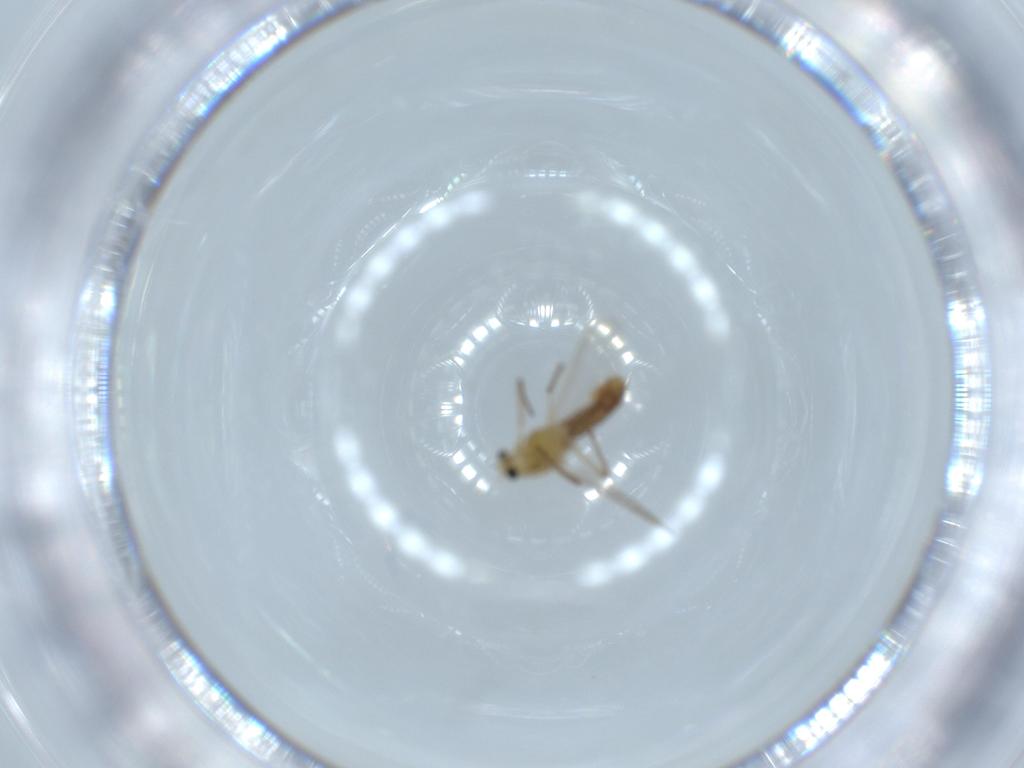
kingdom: Animalia
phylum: Arthropoda
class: Insecta
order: Diptera
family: Chironomidae
